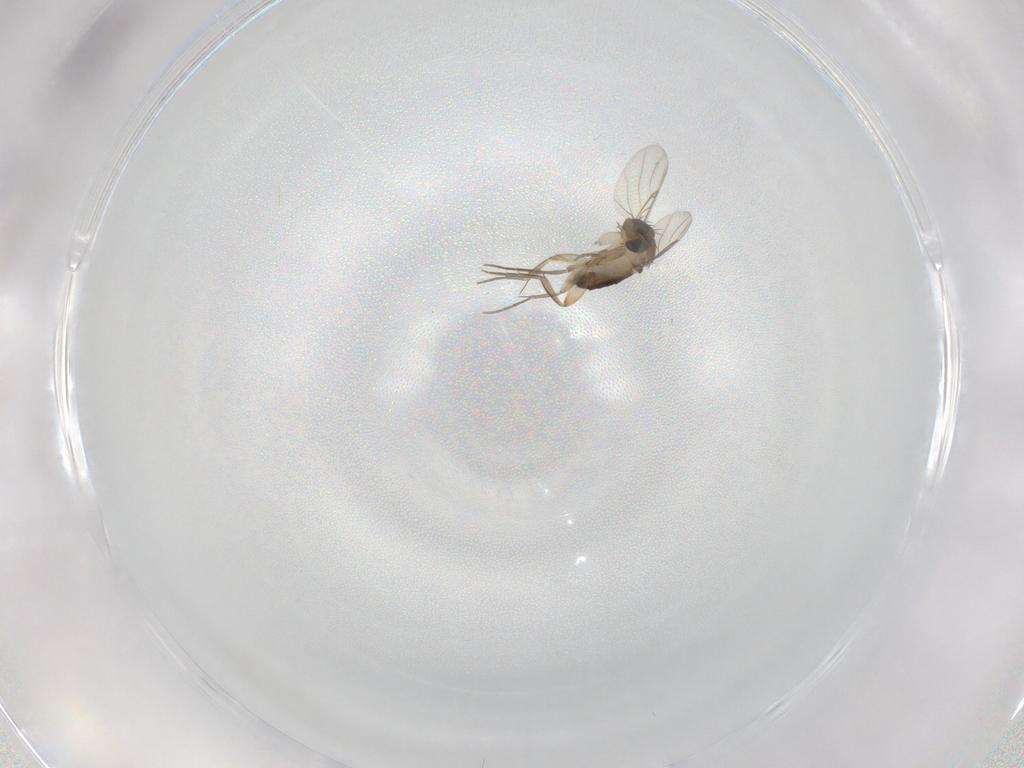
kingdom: Animalia
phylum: Arthropoda
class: Insecta
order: Diptera
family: Phoridae
